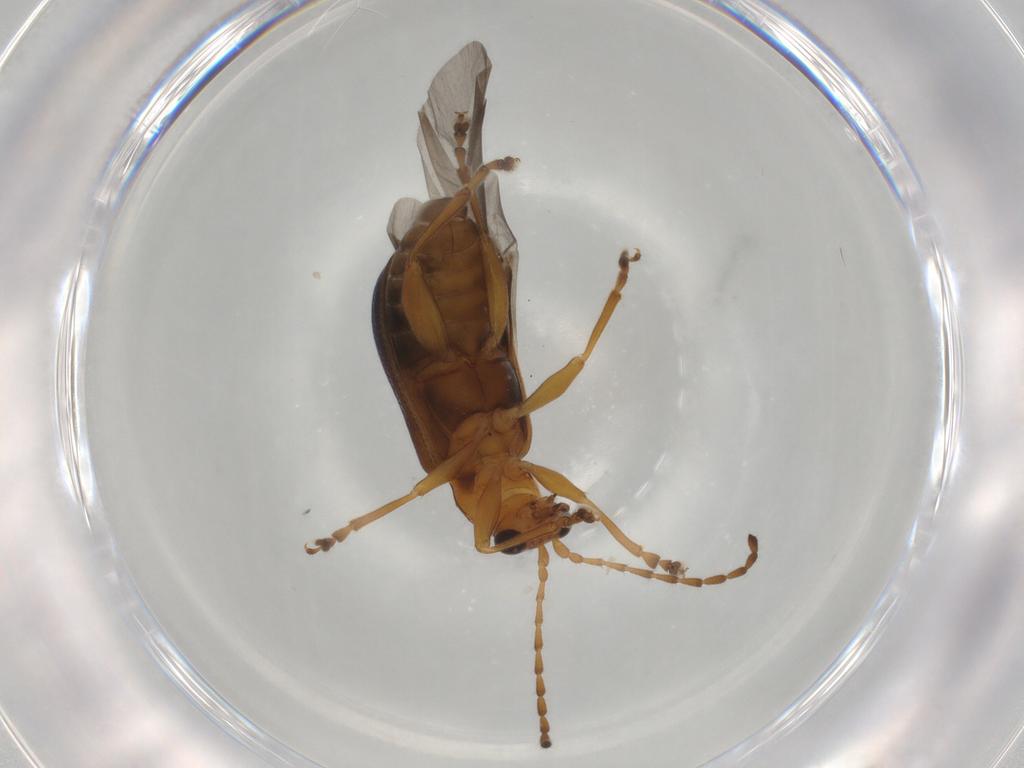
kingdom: Animalia
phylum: Arthropoda
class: Insecta
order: Coleoptera
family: Chrysomelidae
